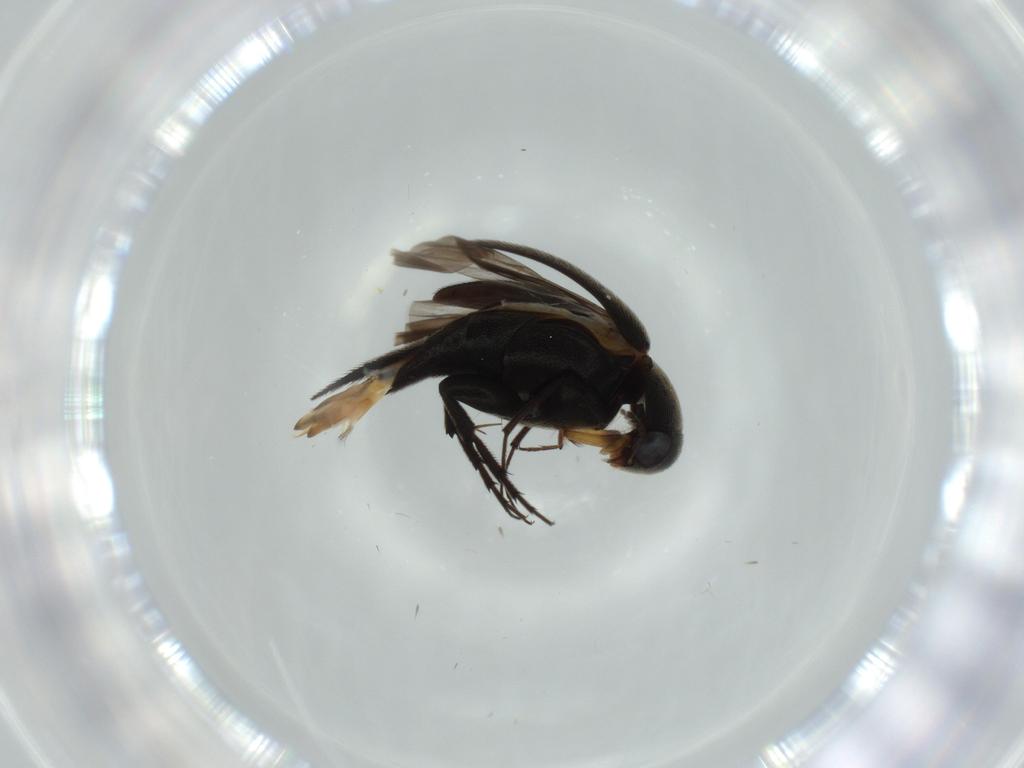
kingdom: Animalia
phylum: Arthropoda
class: Insecta
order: Coleoptera
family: Mordellidae
